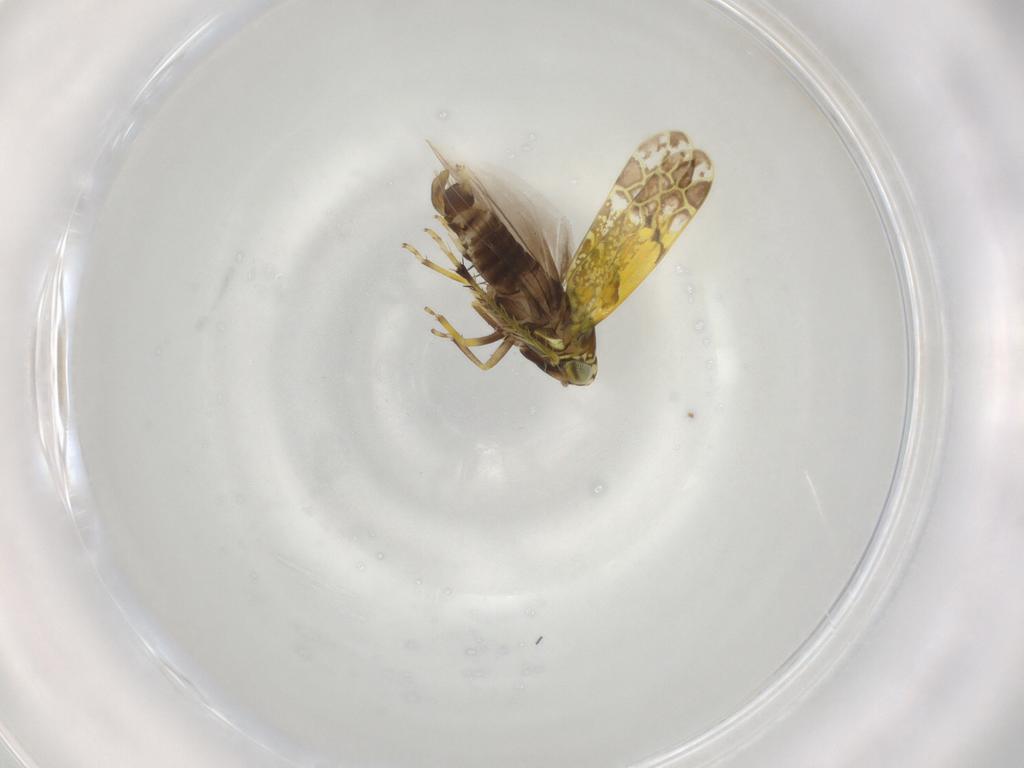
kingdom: Animalia
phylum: Arthropoda
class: Insecta
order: Hemiptera
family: Cicadellidae
